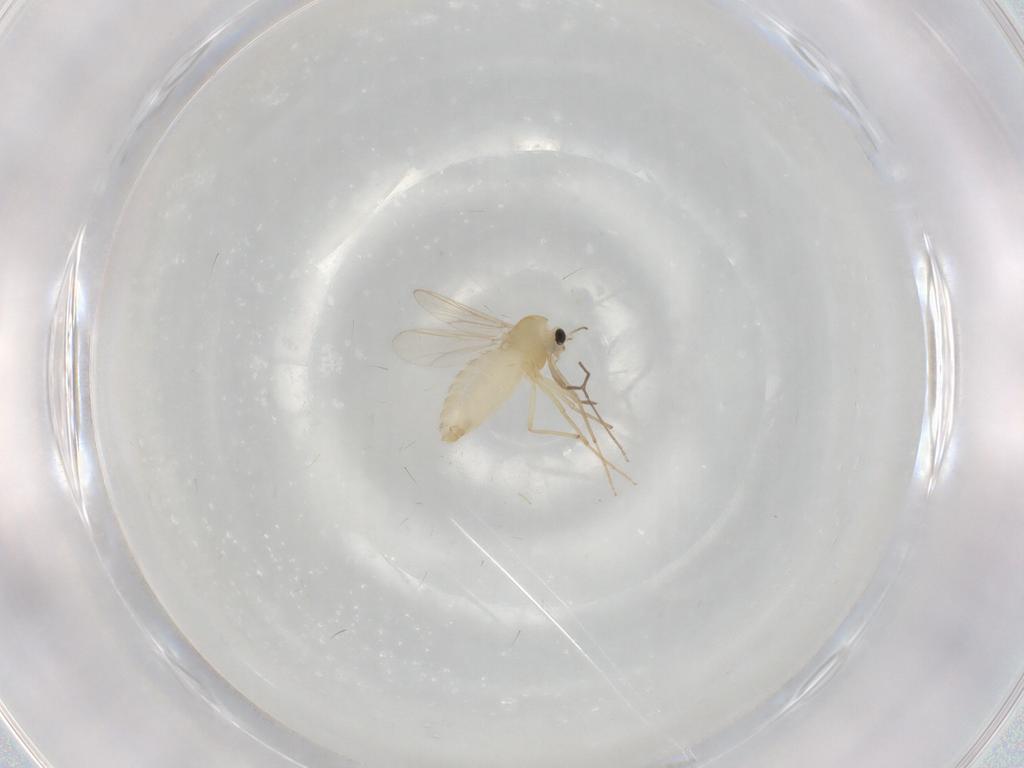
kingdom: Animalia
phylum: Arthropoda
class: Insecta
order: Diptera
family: Chironomidae
